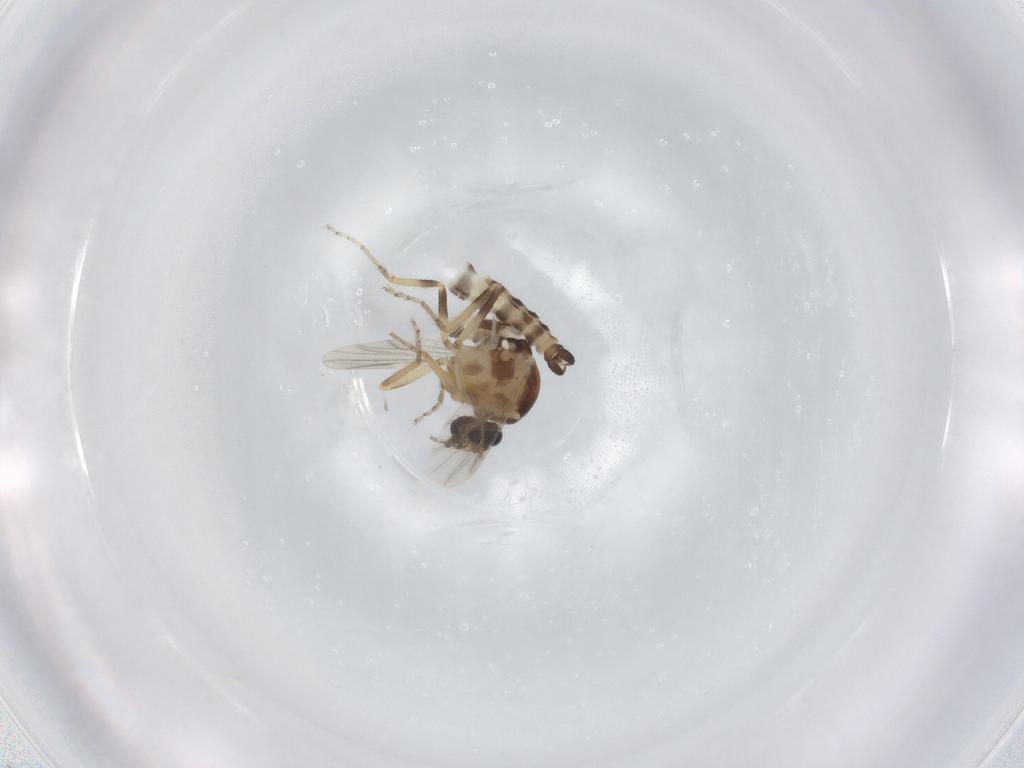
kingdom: Animalia
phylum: Arthropoda
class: Insecta
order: Diptera
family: Ceratopogonidae
